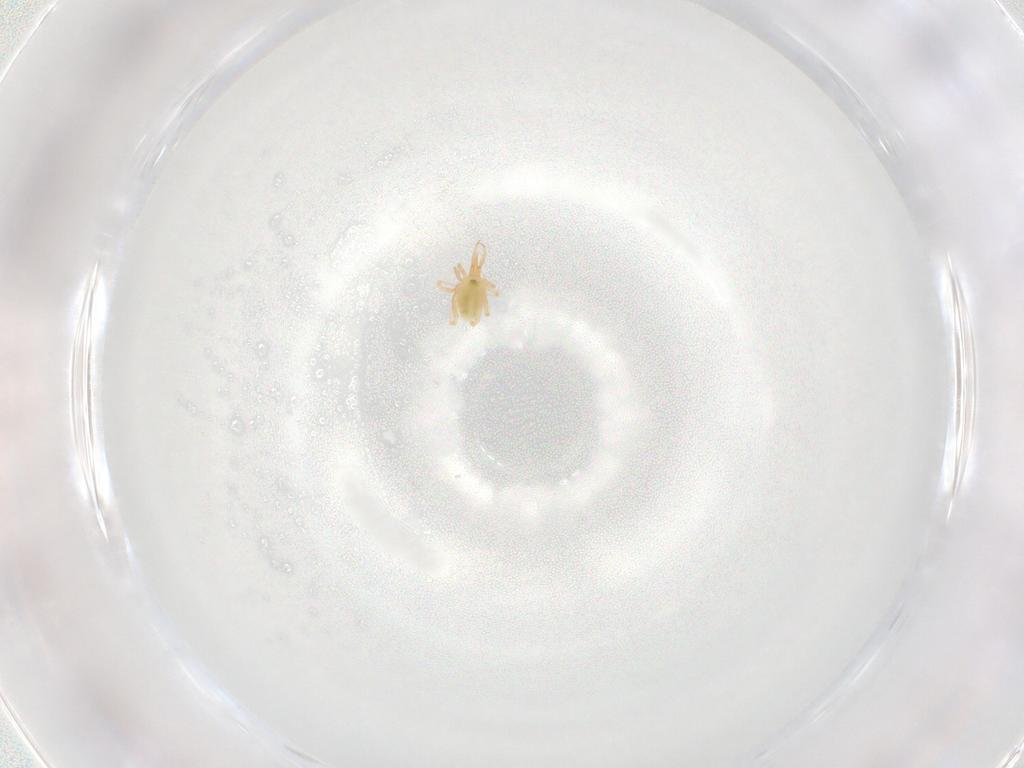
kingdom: Animalia
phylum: Arthropoda
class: Arachnida
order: Trombidiformes
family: Cunaxidae
